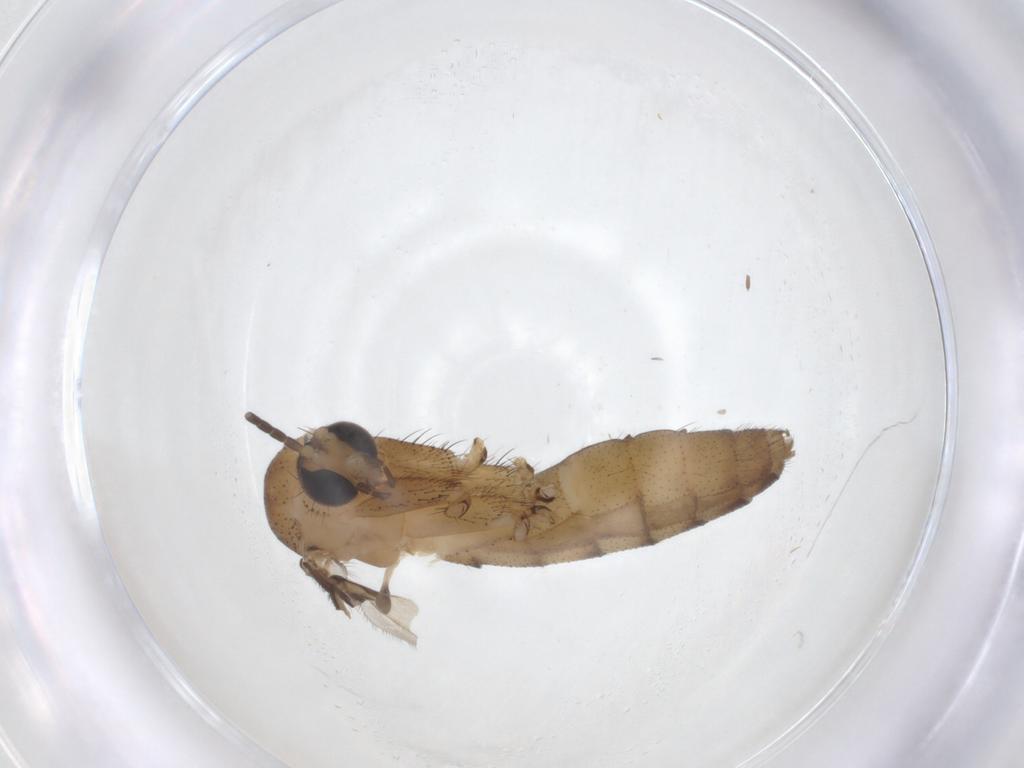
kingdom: Animalia
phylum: Arthropoda
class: Insecta
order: Diptera
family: Mycetophilidae
